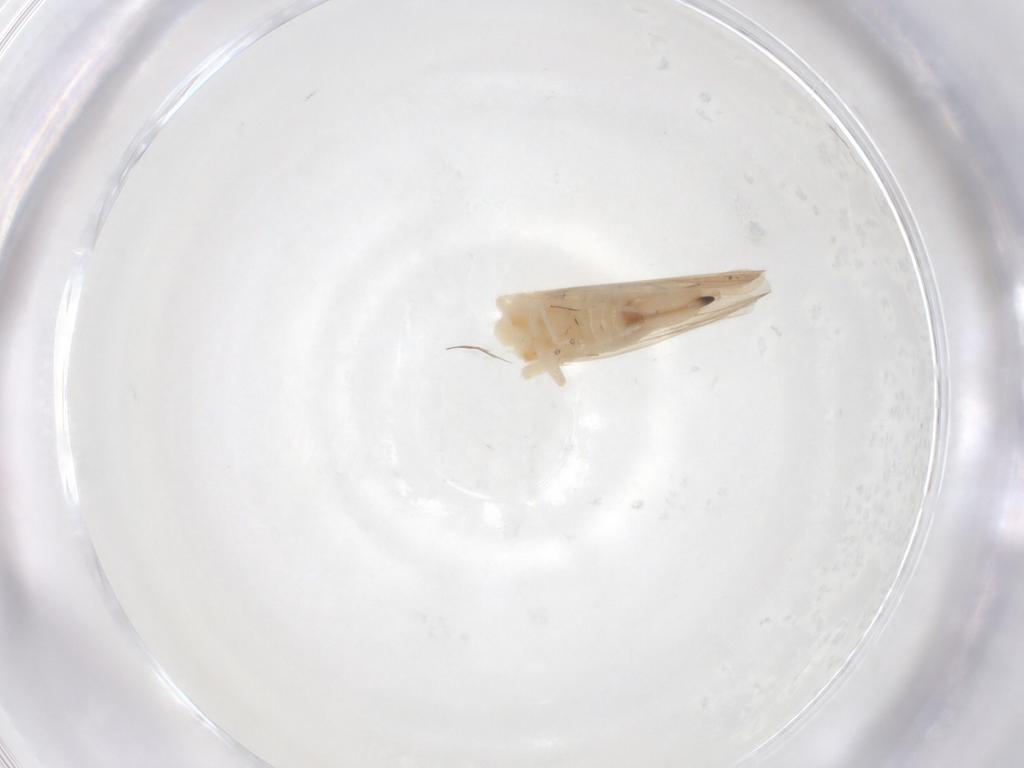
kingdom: Animalia
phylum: Arthropoda
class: Insecta
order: Hemiptera
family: Cicadellidae
